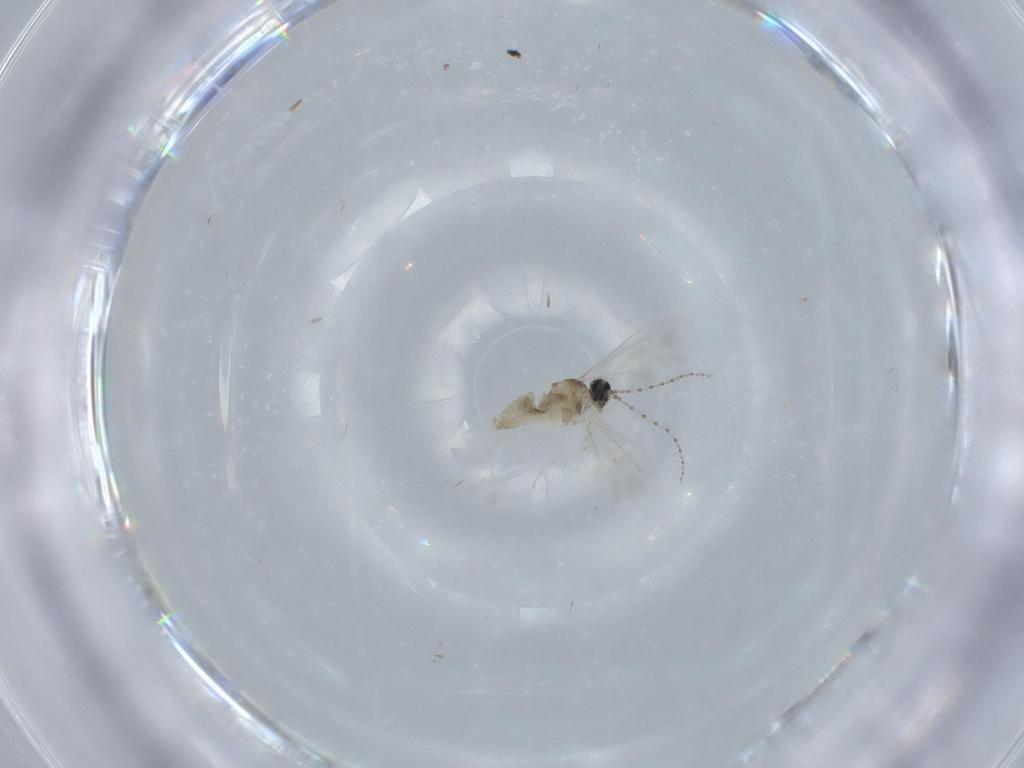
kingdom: Animalia
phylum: Arthropoda
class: Insecta
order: Diptera
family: Cecidomyiidae
